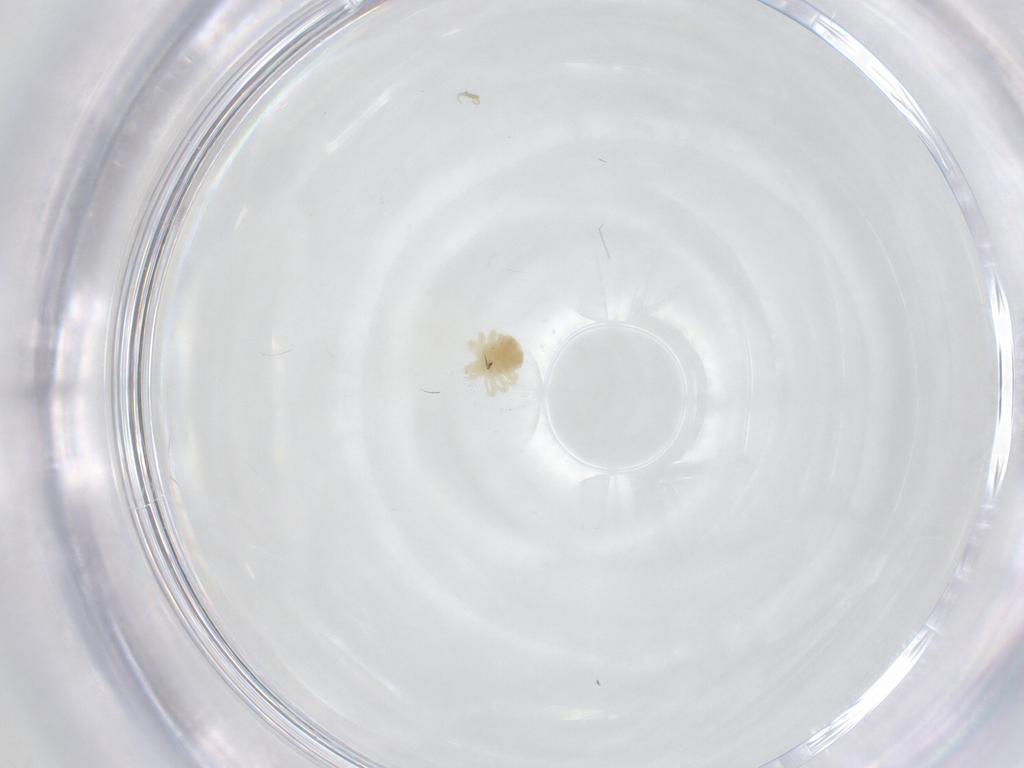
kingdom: Animalia
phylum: Arthropoda
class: Arachnida
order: Trombidiformes
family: Anystidae
